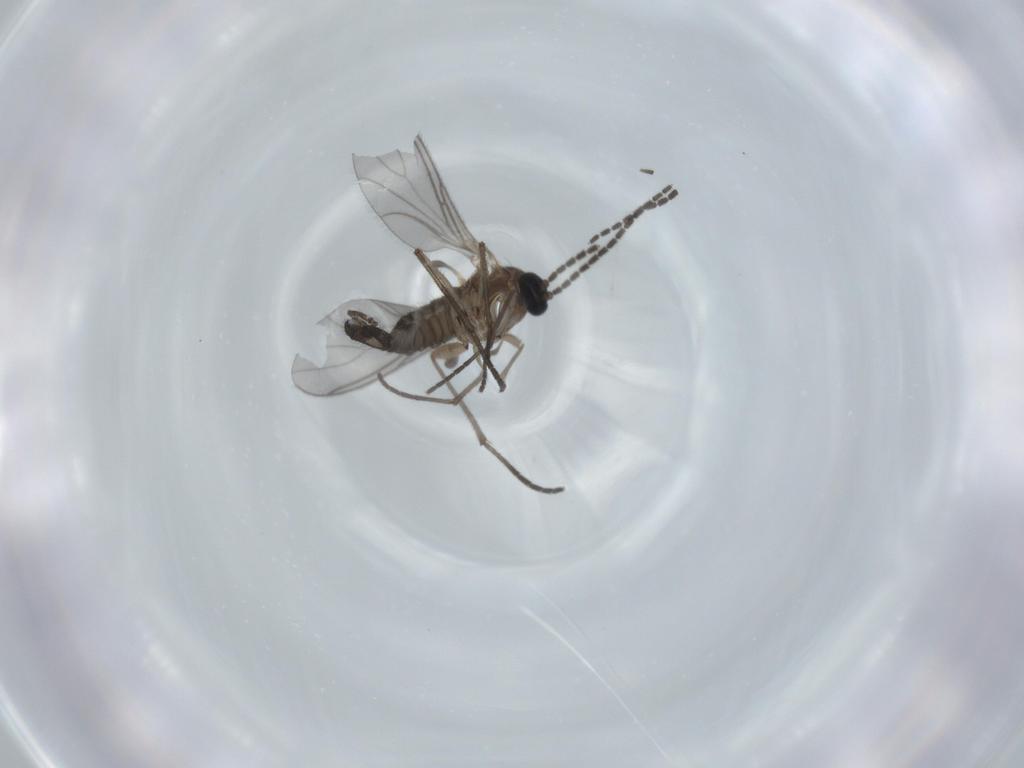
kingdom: Animalia
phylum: Arthropoda
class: Insecta
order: Diptera
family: Sciaridae
